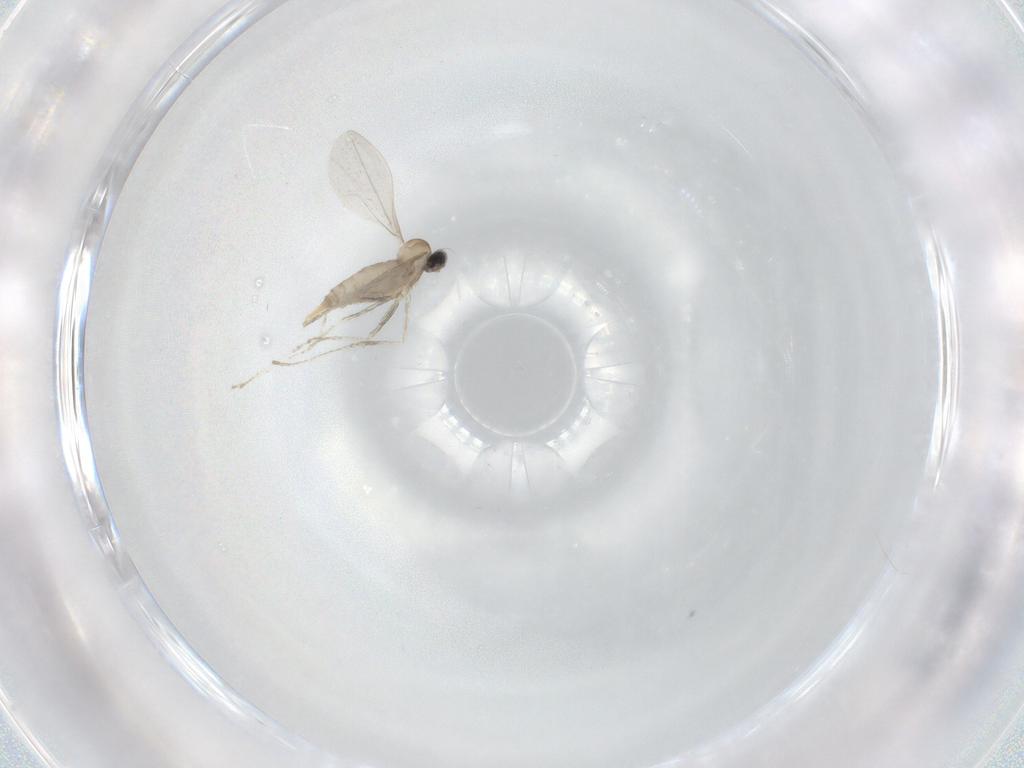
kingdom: Animalia
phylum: Arthropoda
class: Insecta
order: Diptera
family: Cecidomyiidae
